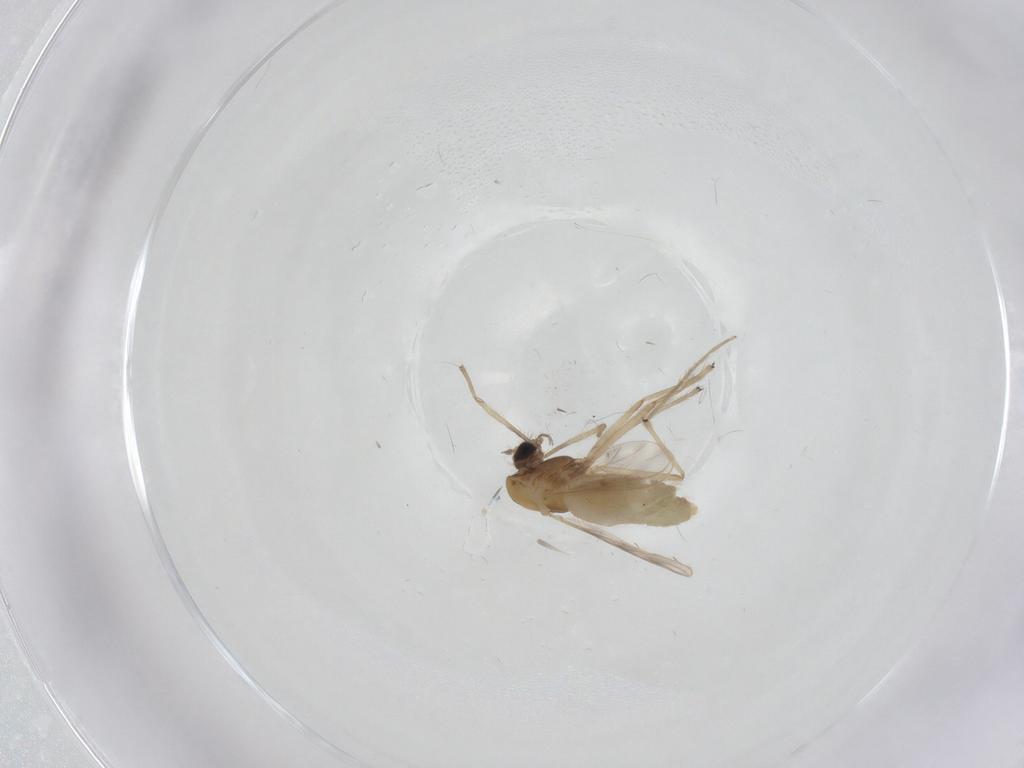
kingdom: Animalia
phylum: Arthropoda
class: Insecta
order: Diptera
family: Chironomidae
